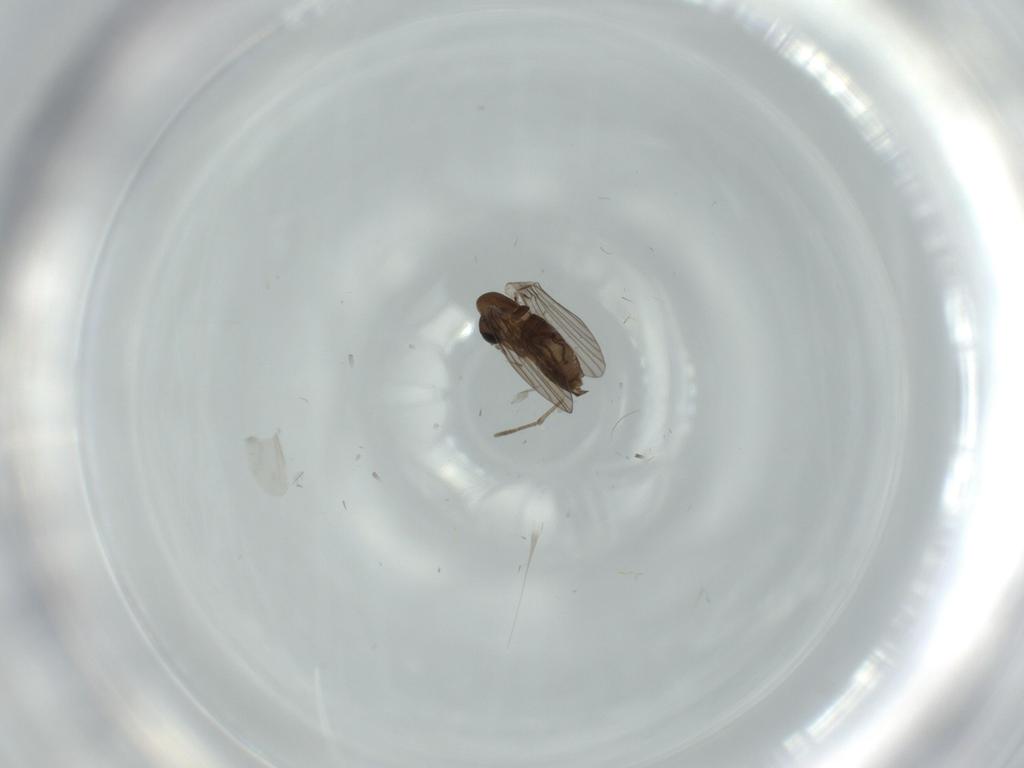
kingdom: Animalia
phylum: Arthropoda
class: Insecta
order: Diptera
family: Cecidomyiidae
